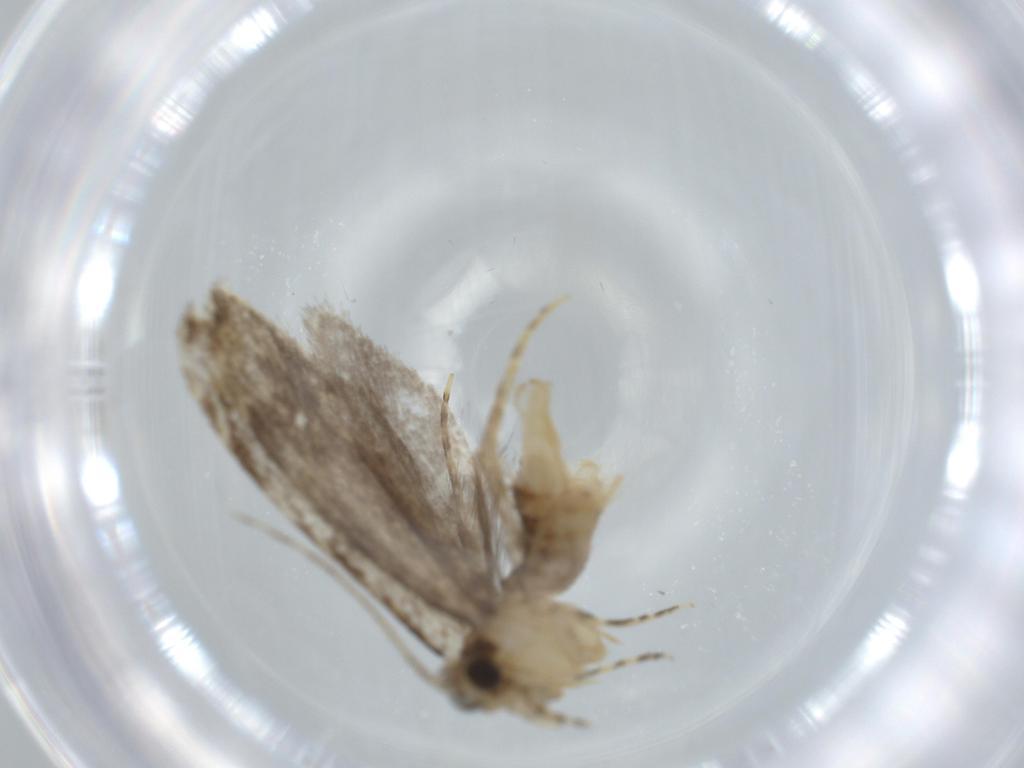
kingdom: Animalia
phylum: Arthropoda
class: Insecta
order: Lepidoptera
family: Tineidae
